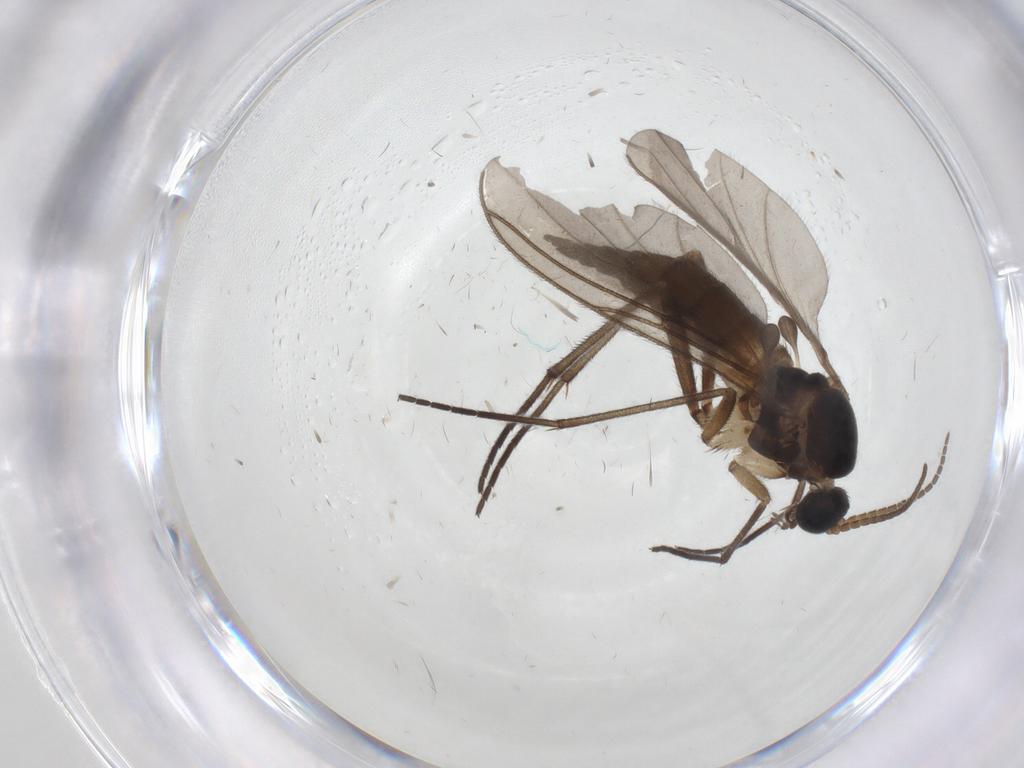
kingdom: Animalia
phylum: Arthropoda
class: Insecta
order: Diptera
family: Sciaridae
